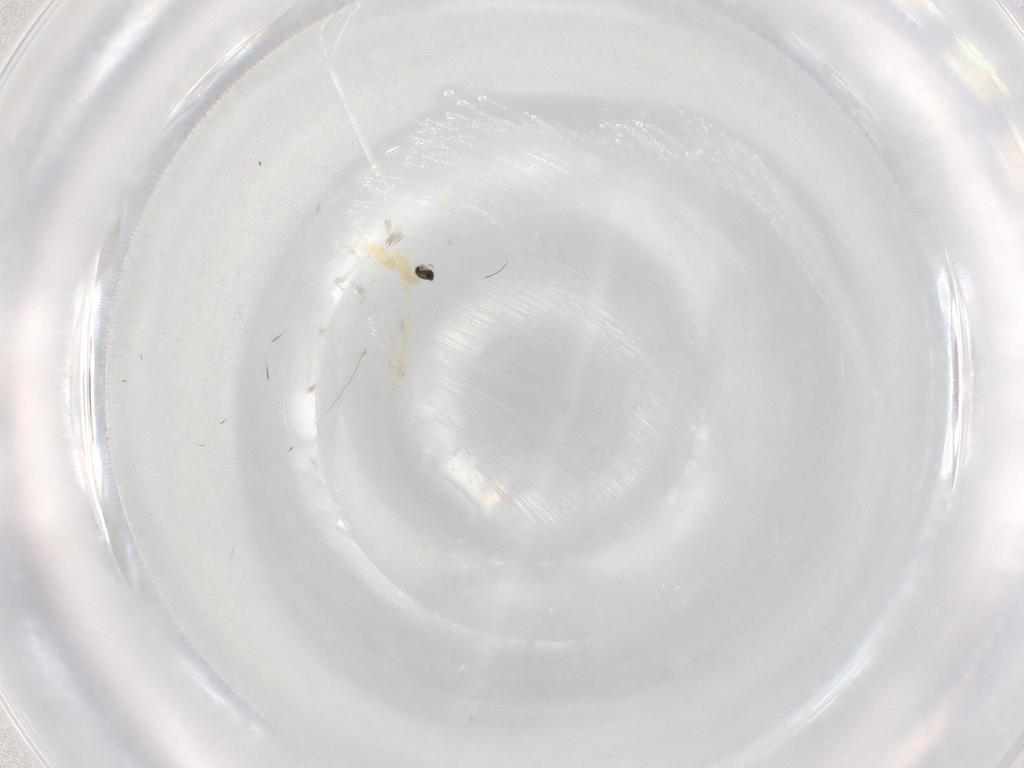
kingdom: Animalia
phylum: Arthropoda
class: Insecta
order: Diptera
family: Cecidomyiidae
